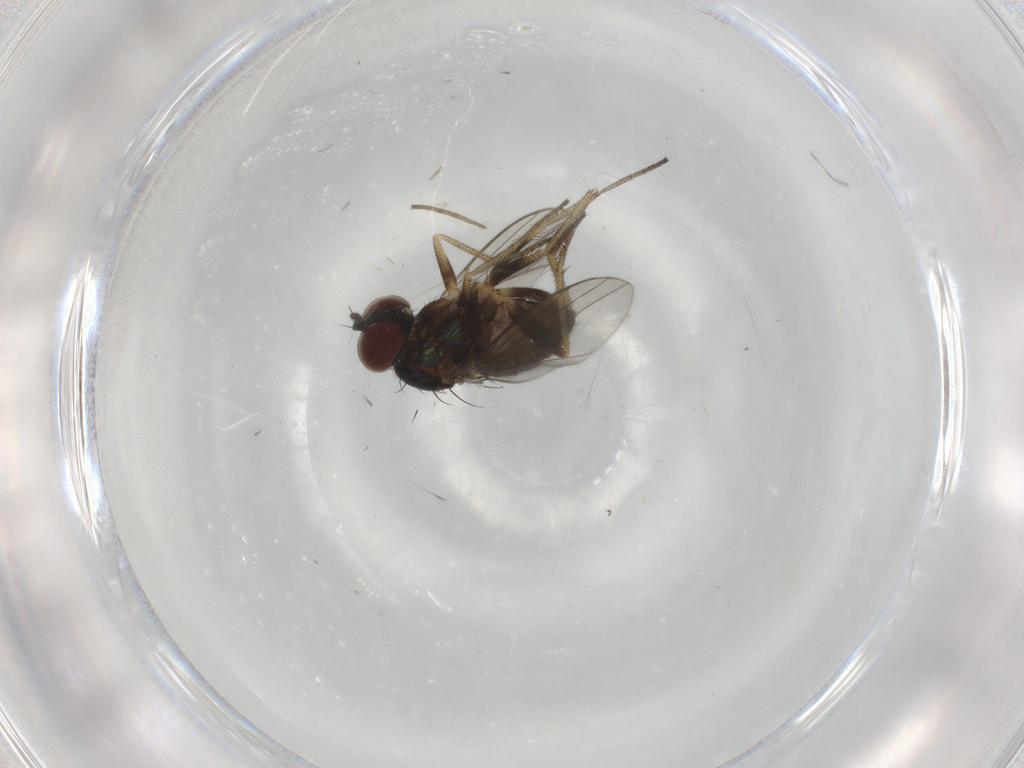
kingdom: Animalia
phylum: Arthropoda
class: Insecta
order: Diptera
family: Dolichopodidae
